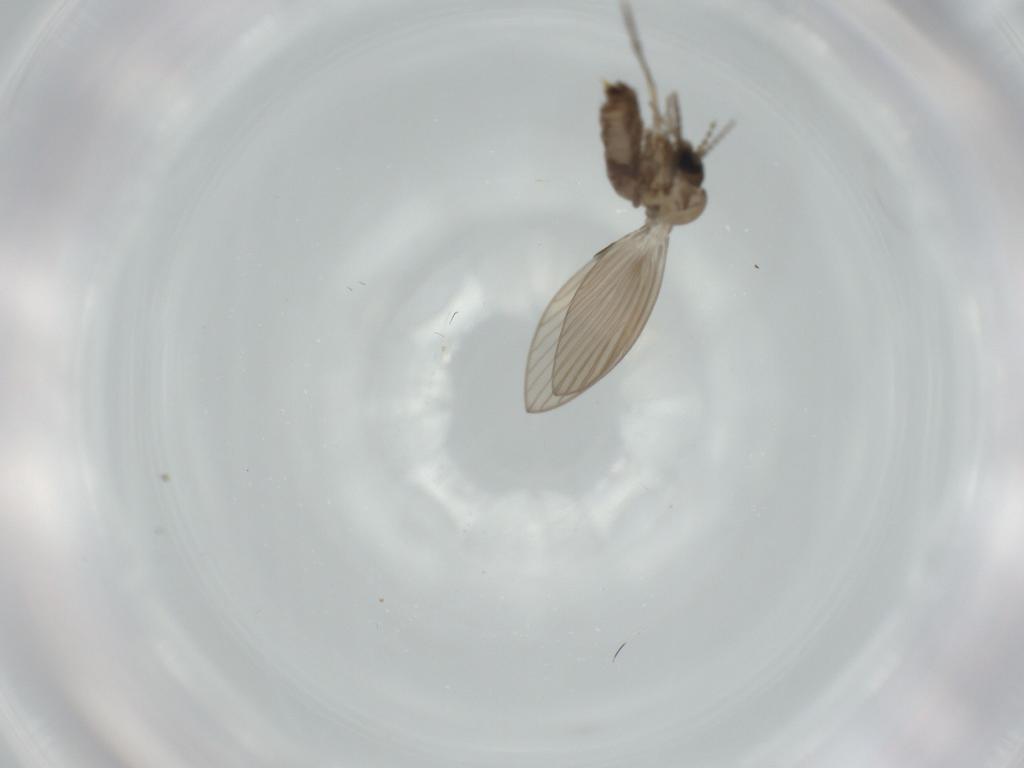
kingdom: Animalia
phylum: Arthropoda
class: Insecta
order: Diptera
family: Psychodidae
